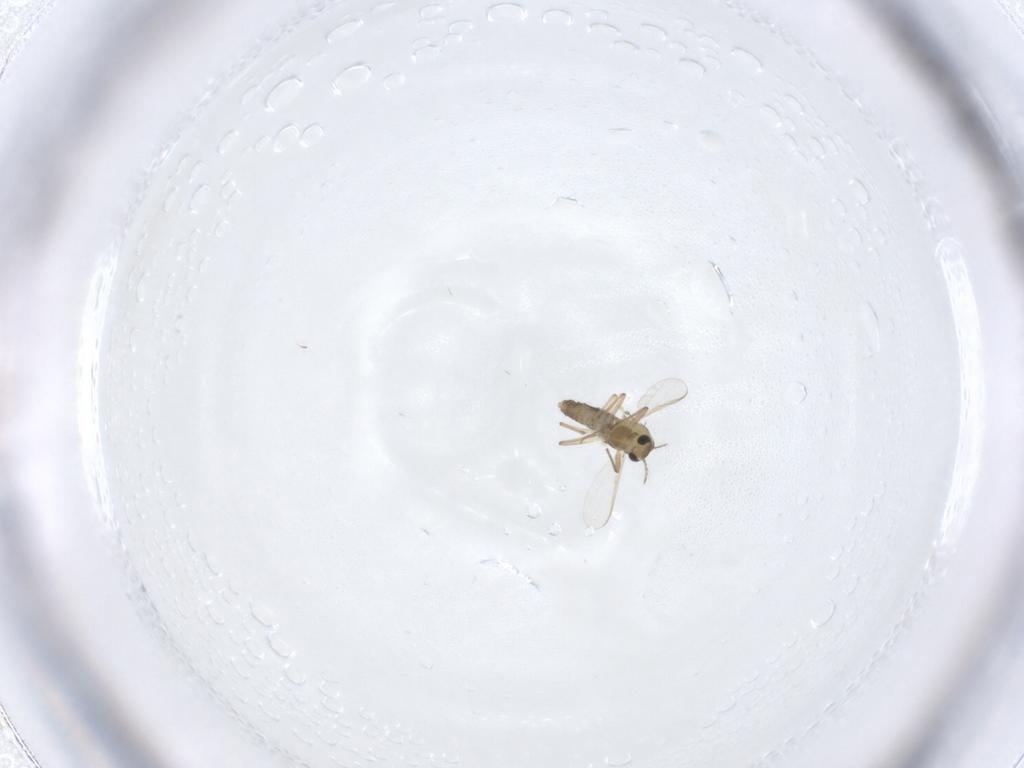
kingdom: Animalia
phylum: Arthropoda
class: Insecta
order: Diptera
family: Chironomidae
